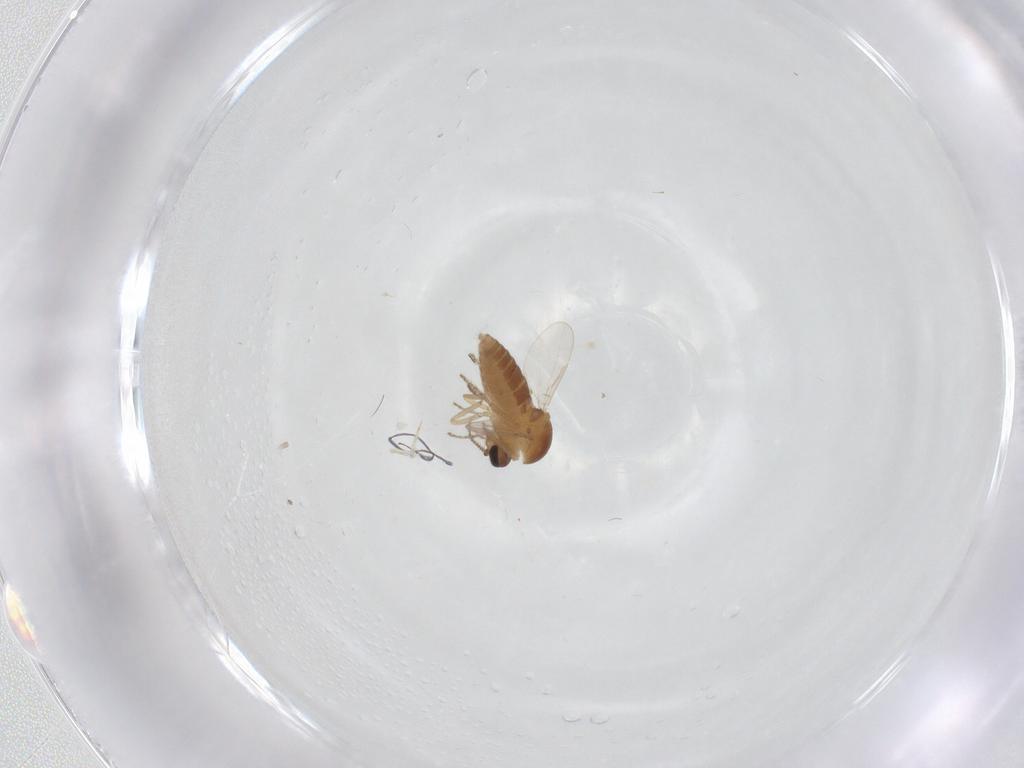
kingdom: Animalia
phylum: Arthropoda
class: Insecta
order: Diptera
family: Ceratopogonidae
